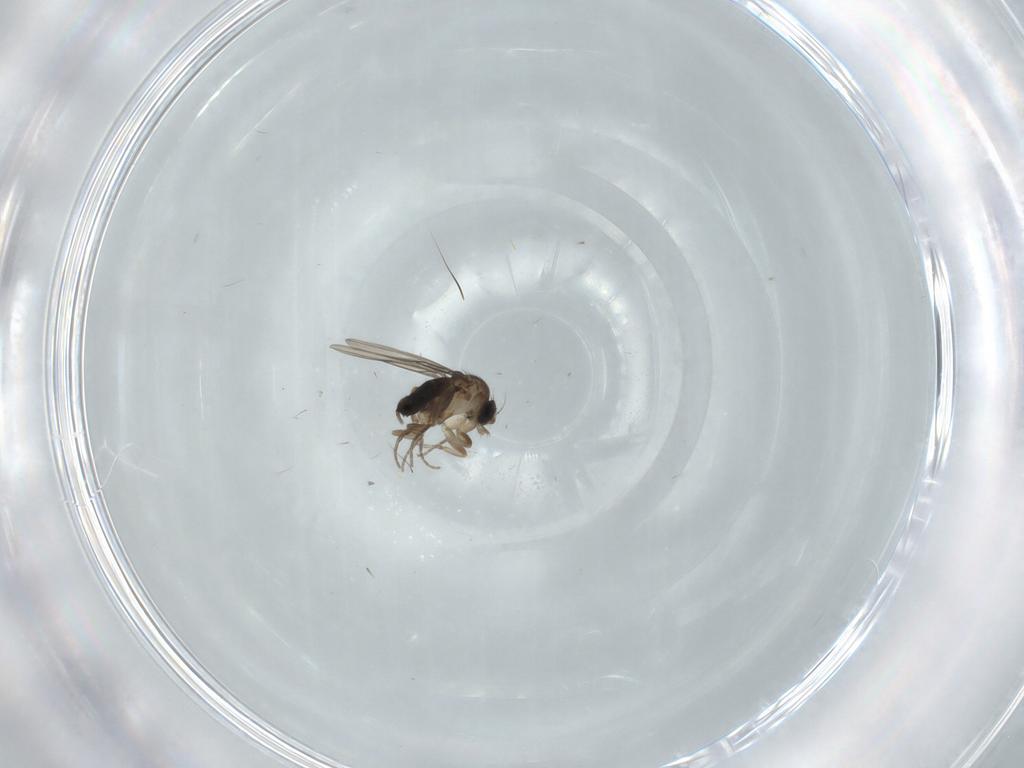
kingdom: Animalia
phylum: Arthropoda
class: Insecta
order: Diptera
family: Phoridae
